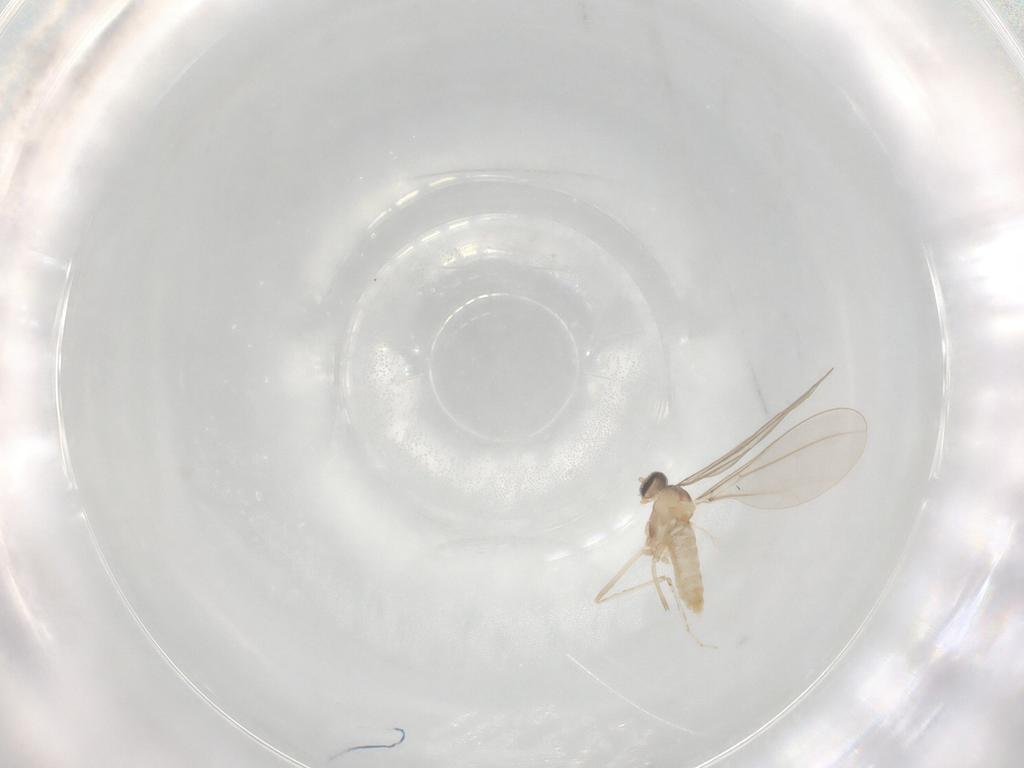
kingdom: Animalia
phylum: Arthropoda
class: Insecta
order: Diptera
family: Cecidomyiidae
